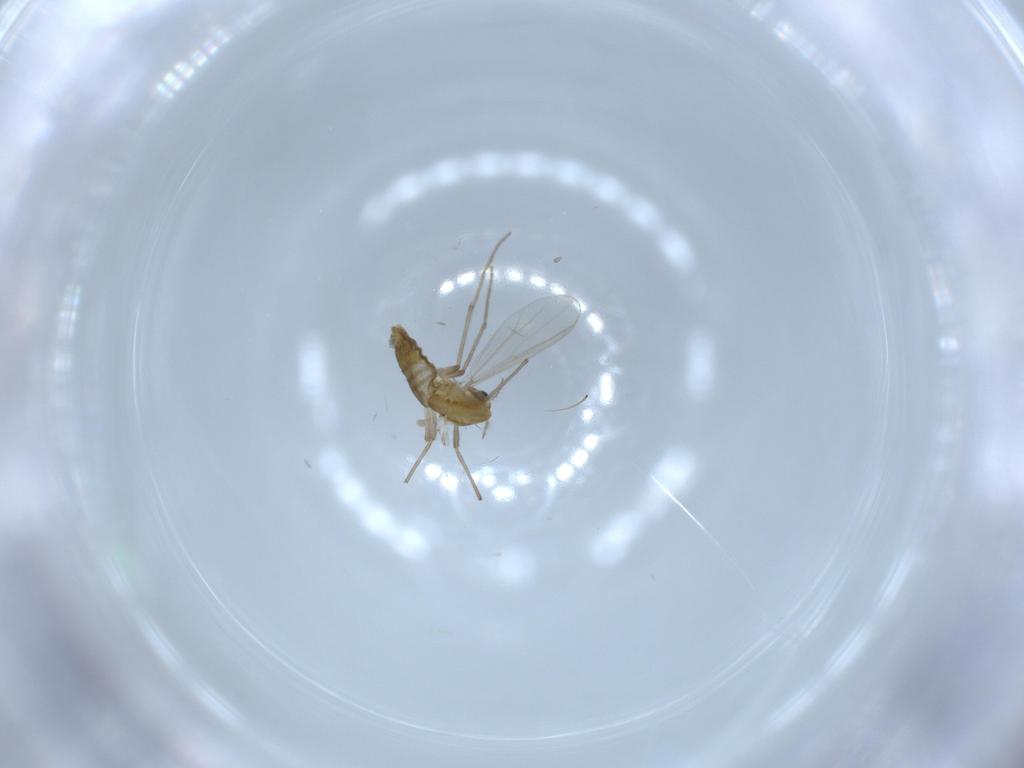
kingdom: Animalia
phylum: Arthropoda
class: Insecta
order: Diptera
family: Chironomidae
